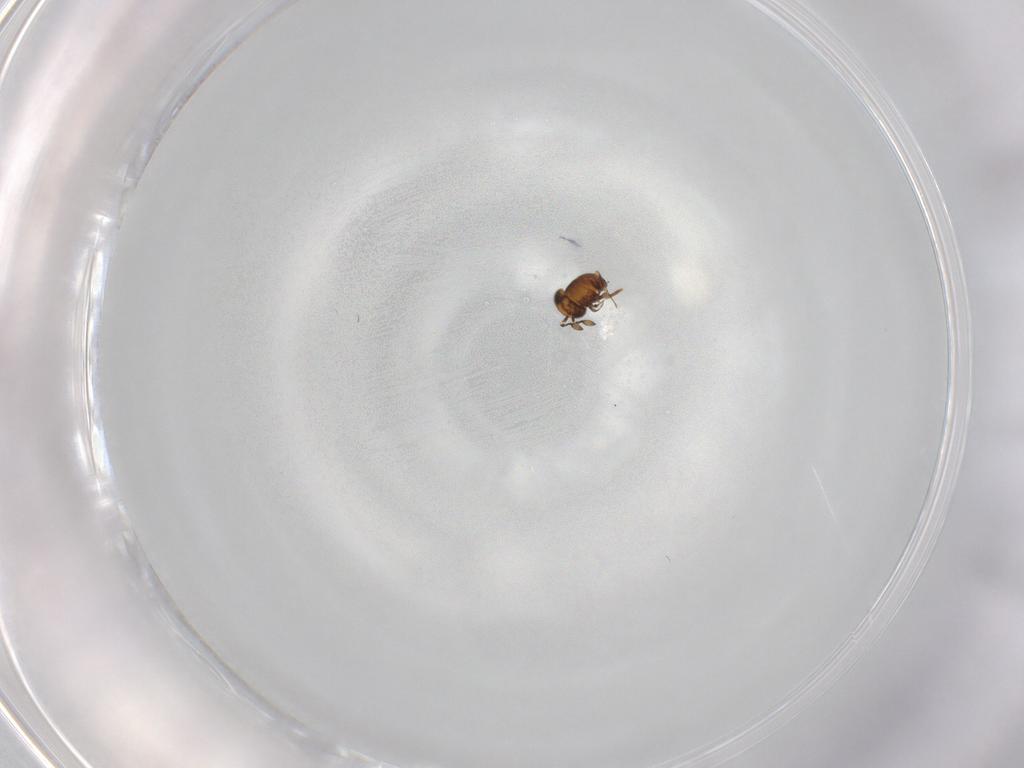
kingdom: Animalia
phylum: Arthropoda
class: Insecta
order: Hymenoptera
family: Scelionidae
